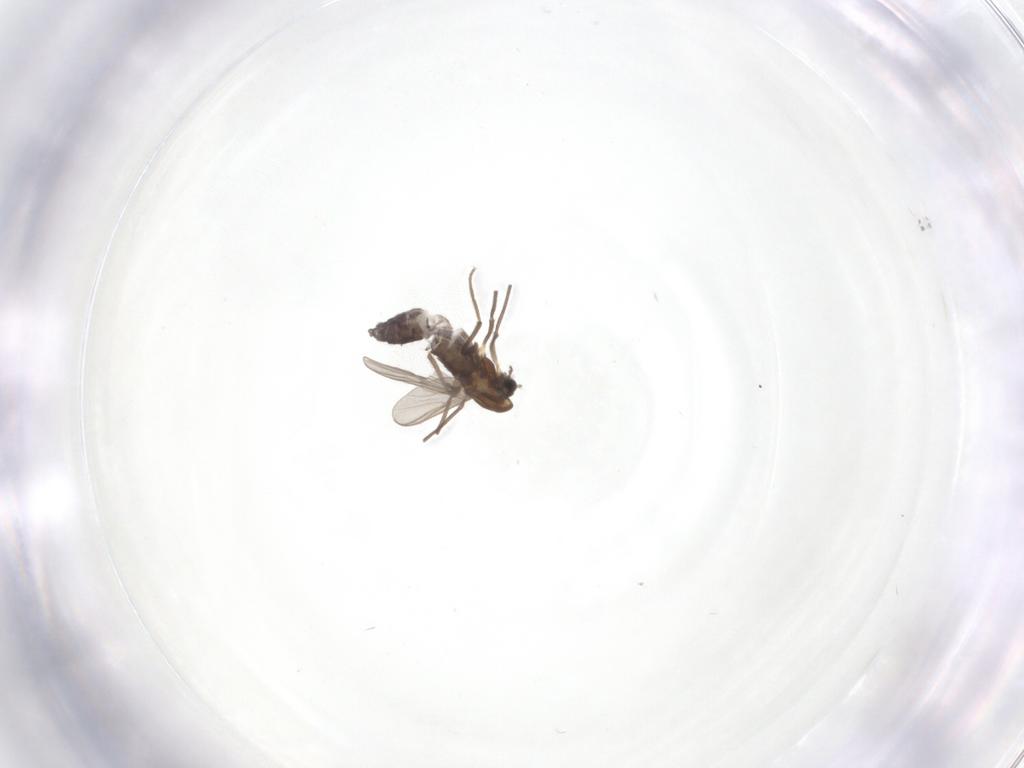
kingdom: Animalia
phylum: Arthropoda
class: Insecta
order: Diptera
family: Chironomidae
